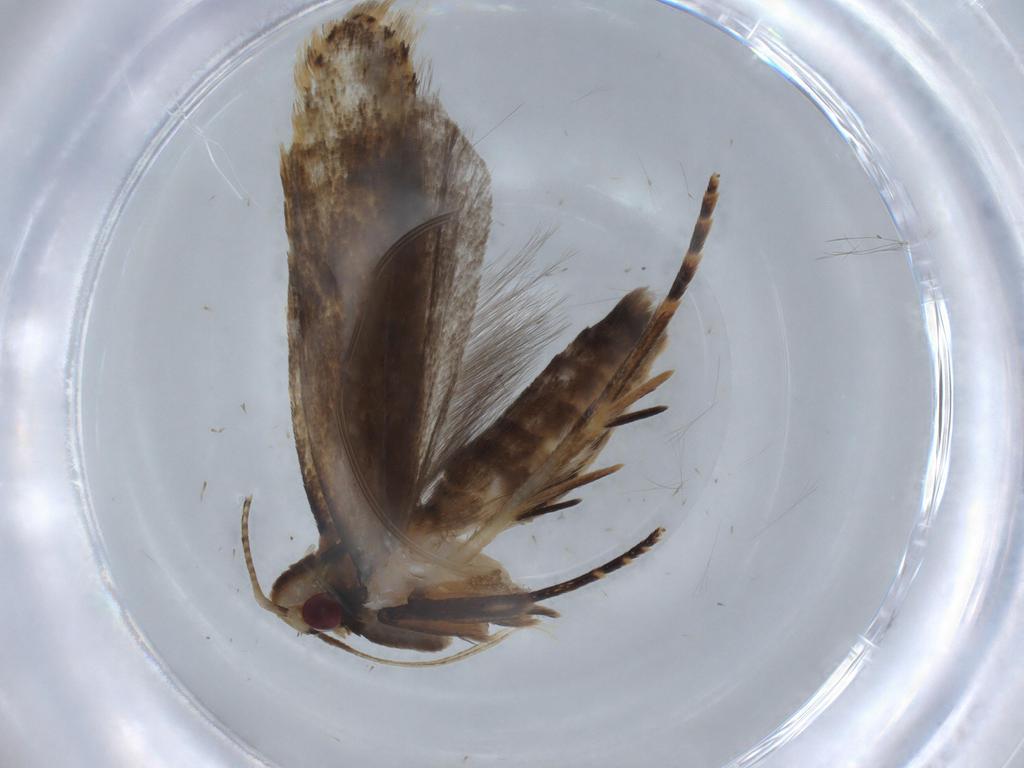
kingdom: Animalia
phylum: Arthropoda
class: Insecta
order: Lepidoptera
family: Gelechiidae
